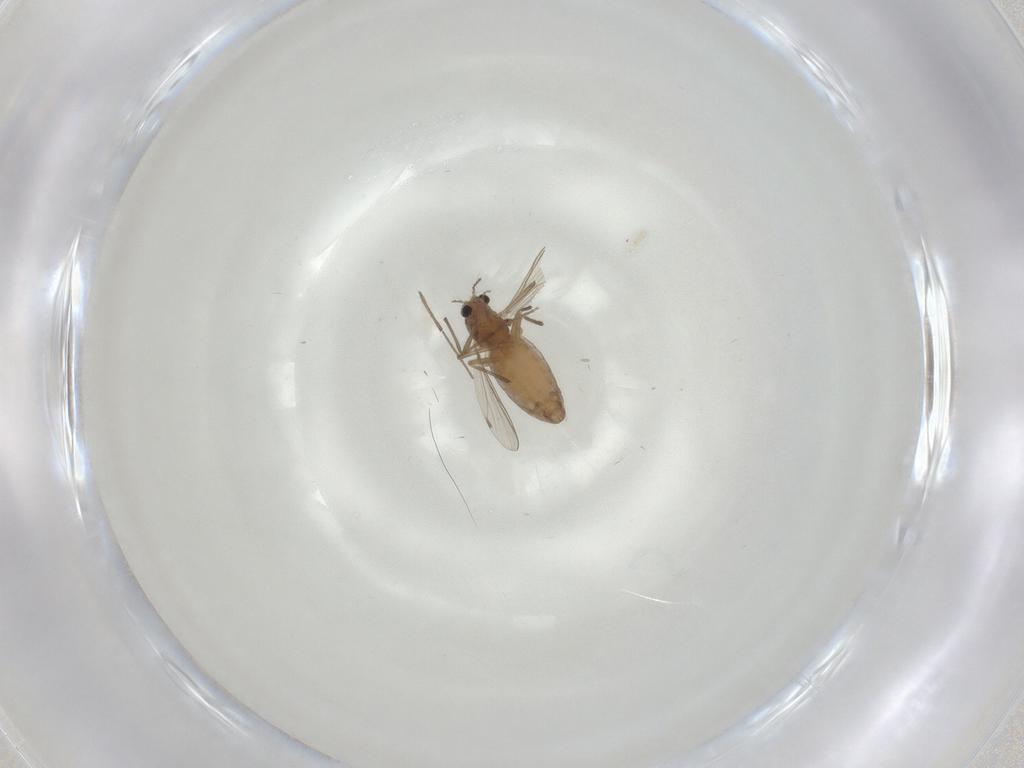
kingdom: Animalia
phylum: Arthropoda
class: Insecta
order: Diptera
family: Chironomidae
